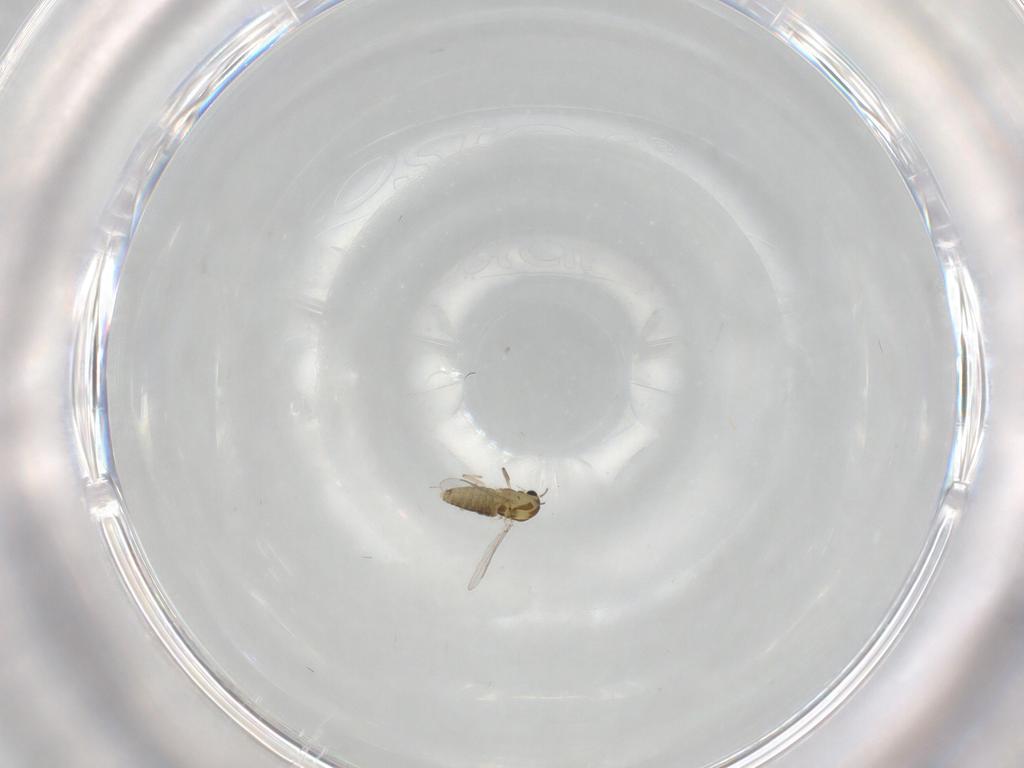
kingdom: Animalia
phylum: Arthropoda
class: Insecta
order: Diptera
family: Chironomidae
